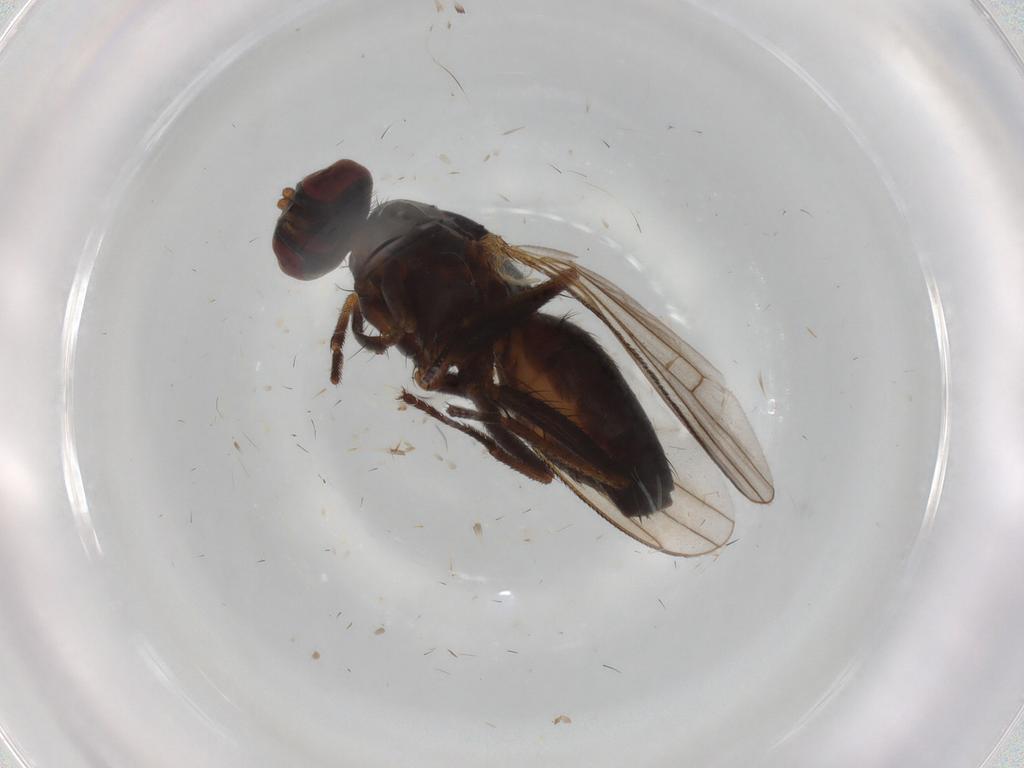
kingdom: Animalia
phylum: Arthropoda
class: Insecta
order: Diptera
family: Muscidae
